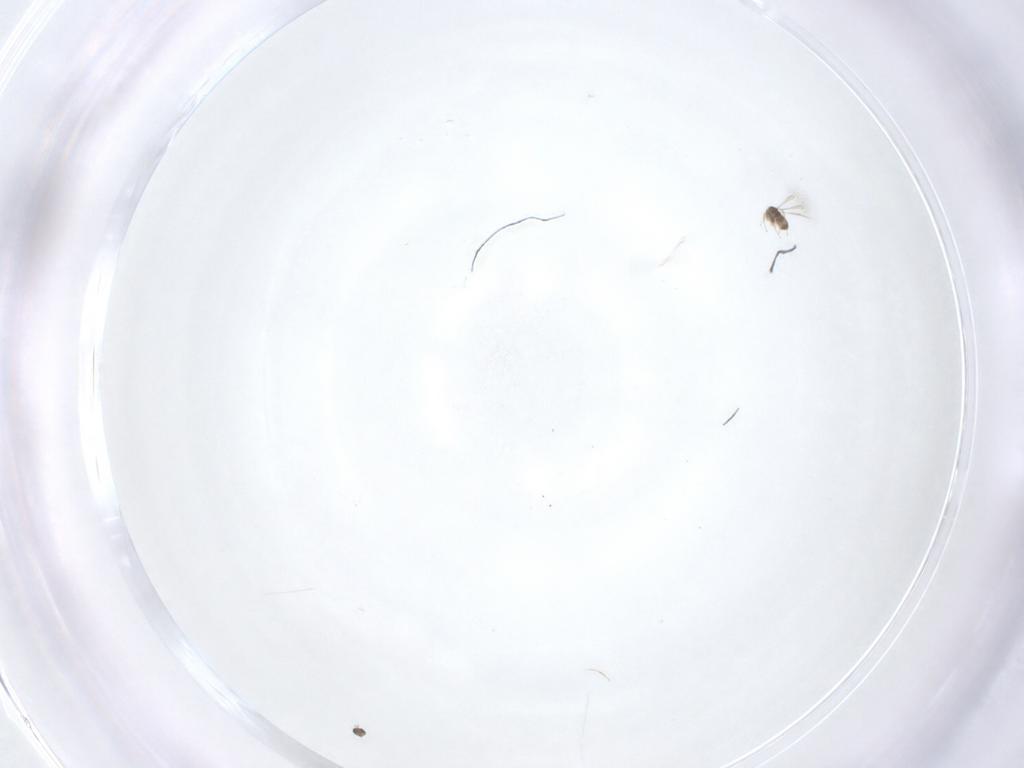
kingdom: Animalia
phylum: Arthropoda
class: Insecta
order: Hymenoptera
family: Mymaridae
